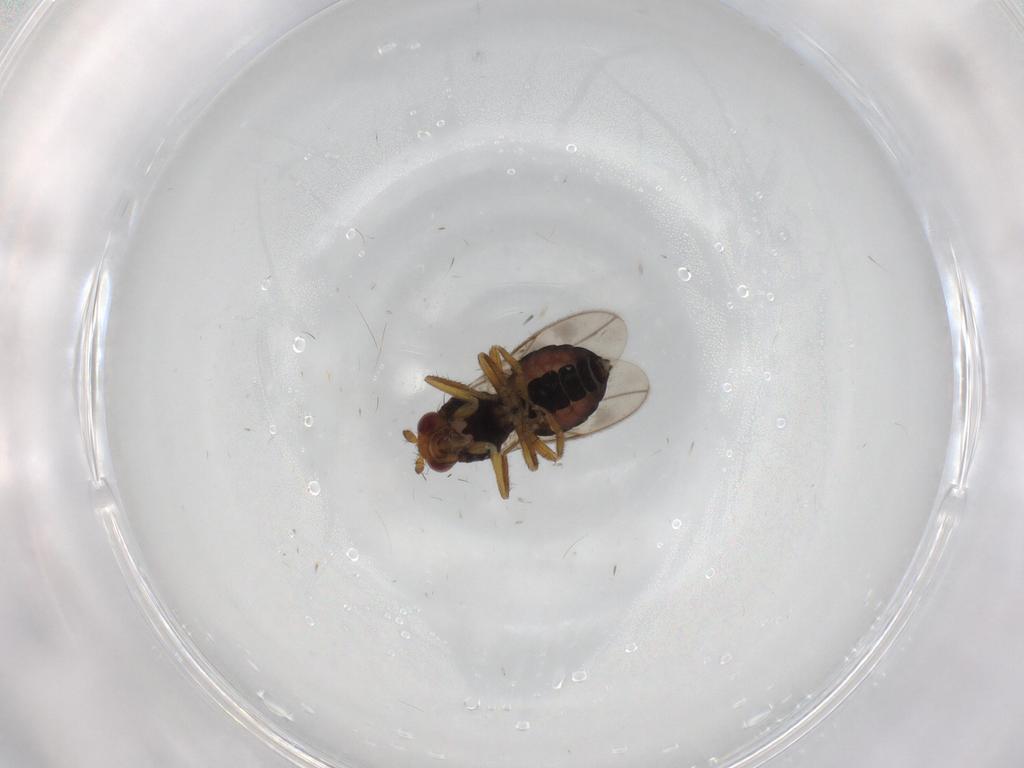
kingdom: Animalia
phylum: Arthropoda
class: Insecta
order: Diptera
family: Sphaeroceridae
